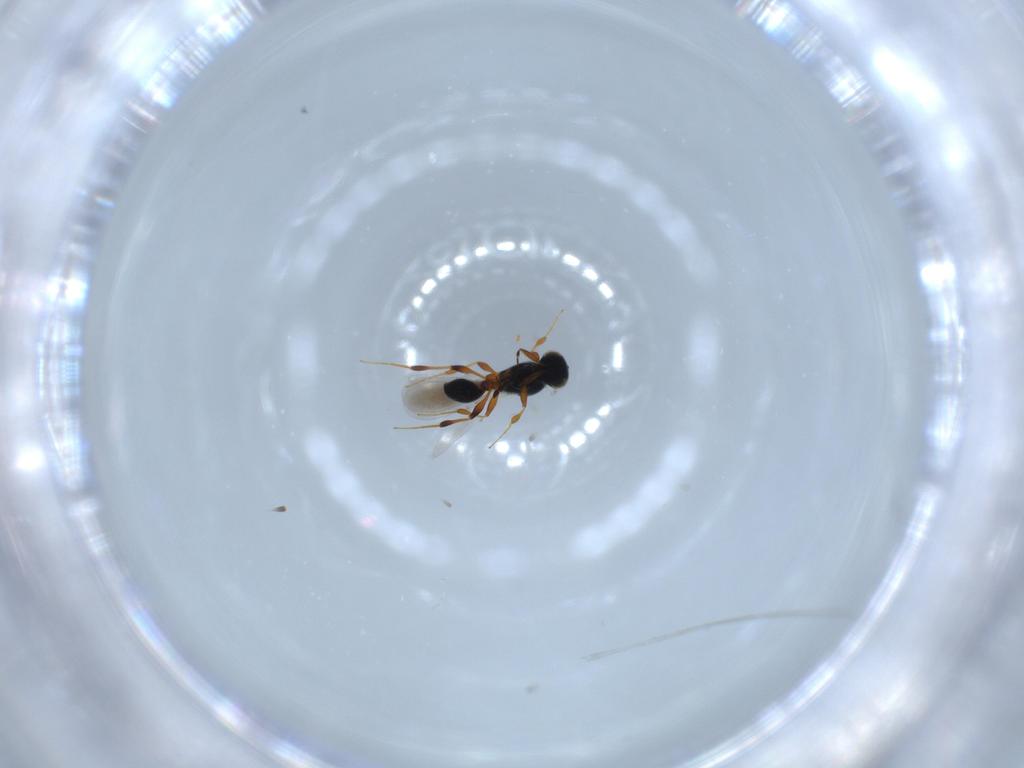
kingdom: Animalia
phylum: Arthropoda
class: Insecta
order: Hymenoptera
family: Platygastridae
